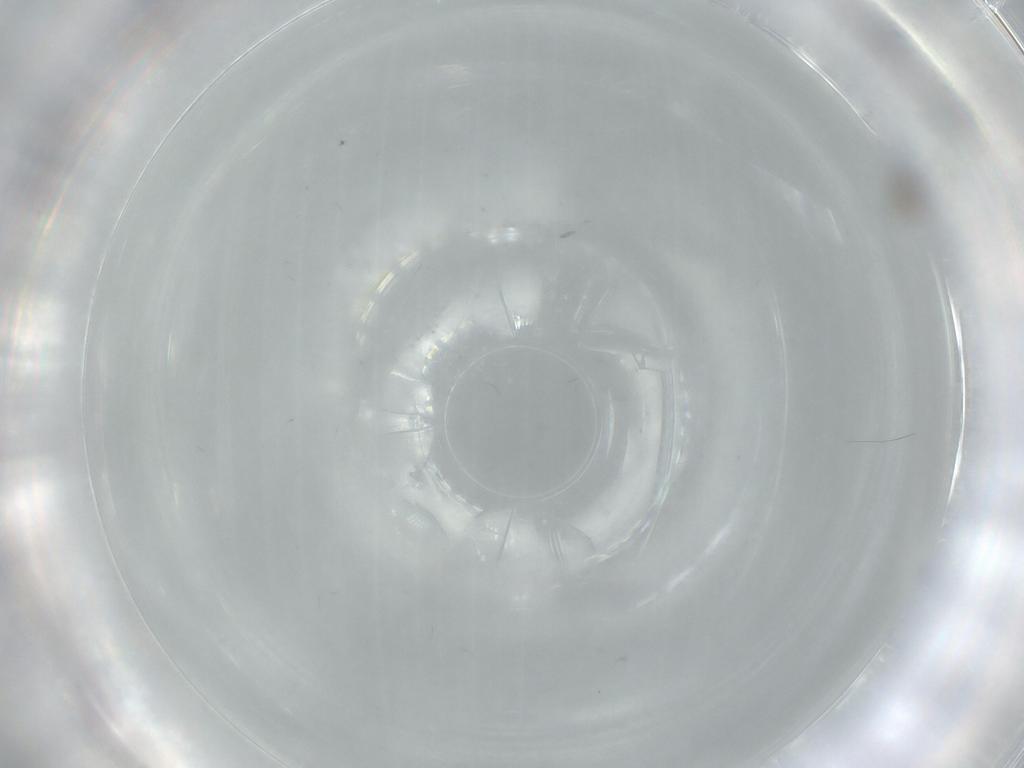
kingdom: Animalia
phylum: Arthropoda
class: Insecta
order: Diptera
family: Cecidomyiidae
